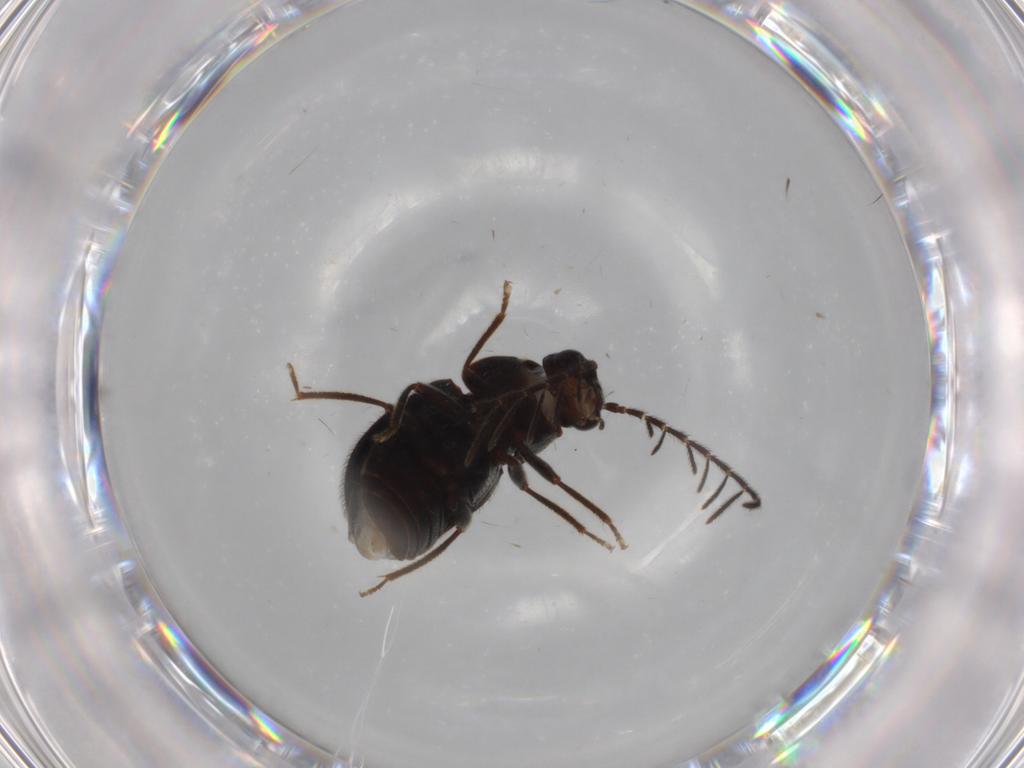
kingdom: Animalia
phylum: Arthropoda
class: Insecta
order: Coleoptera
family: Ptilodactylidae
